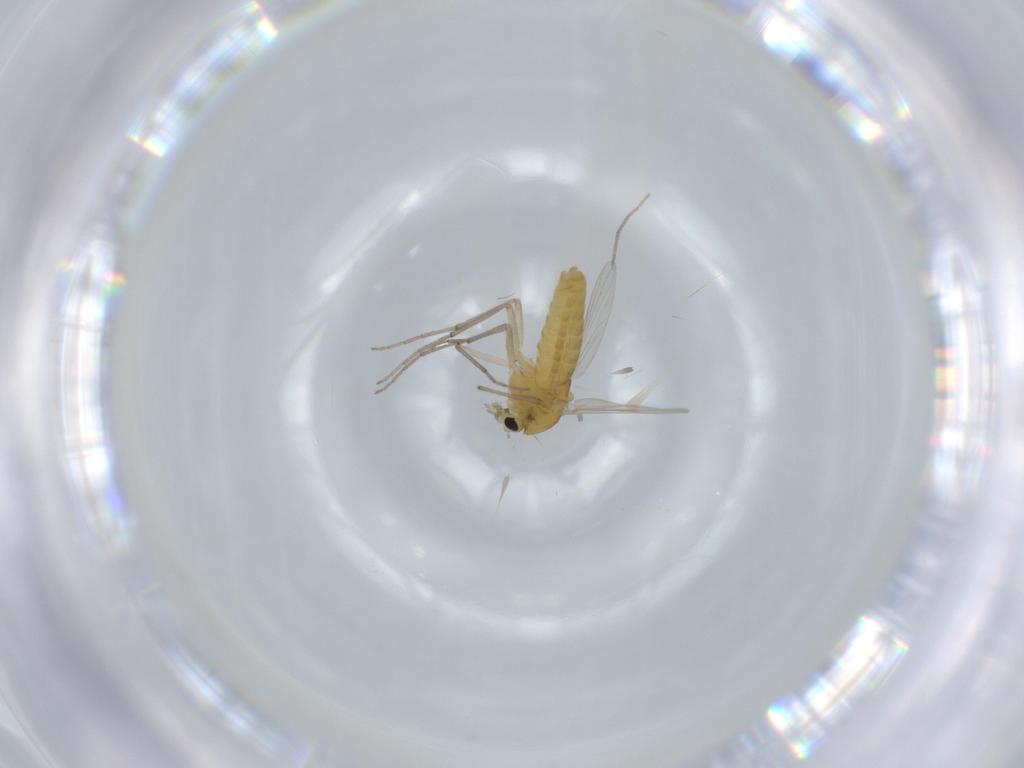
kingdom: Animalia
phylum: Arthropoda
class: Insecta
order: Diptera
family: Chironomidae
